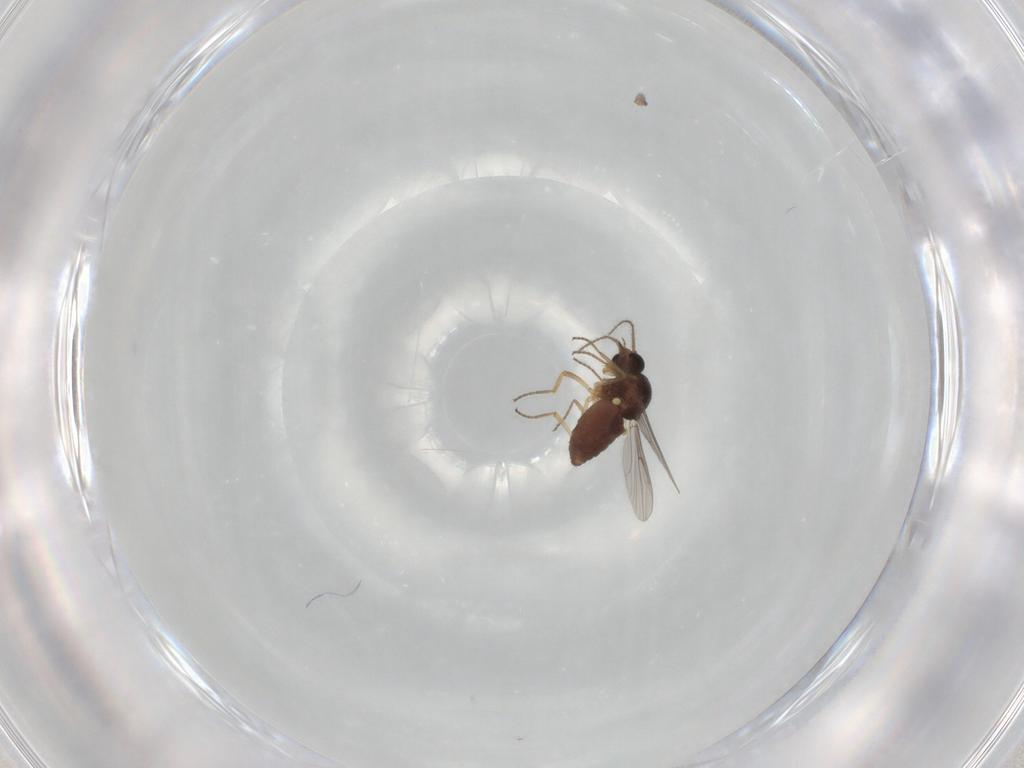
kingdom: Animalia
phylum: Arthropoda
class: Insecta
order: Diptera
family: Ceratopogonidae
